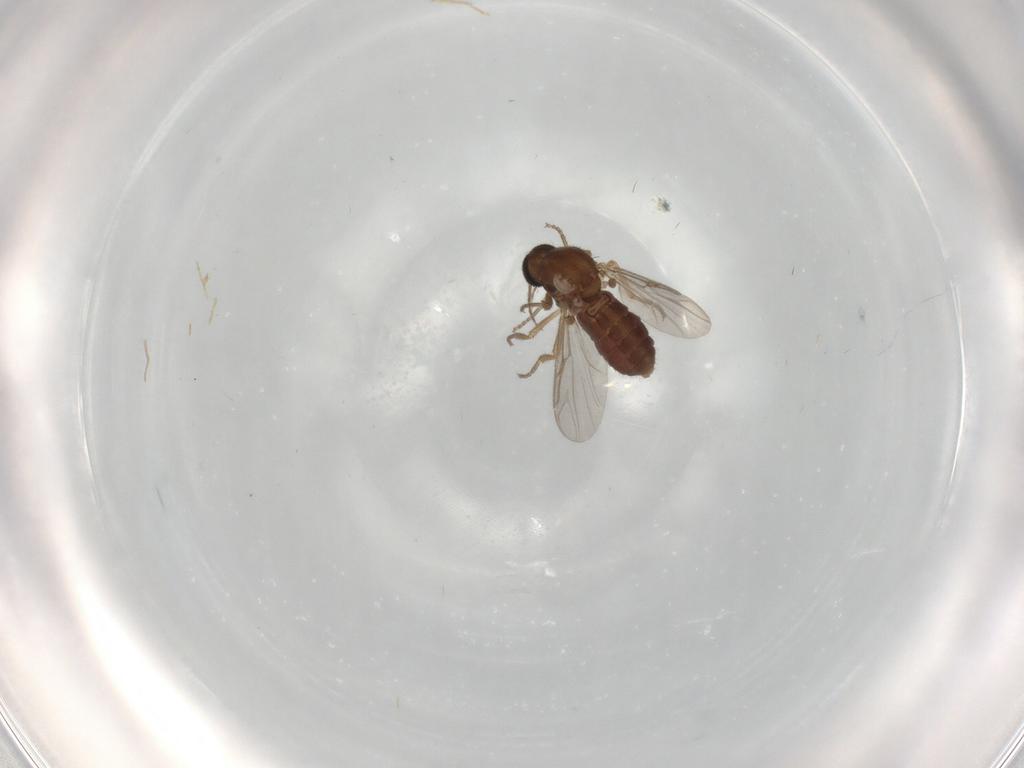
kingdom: Animalia
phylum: Arthropoda
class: Insecta
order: Diptera
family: Ceratopogonidae
